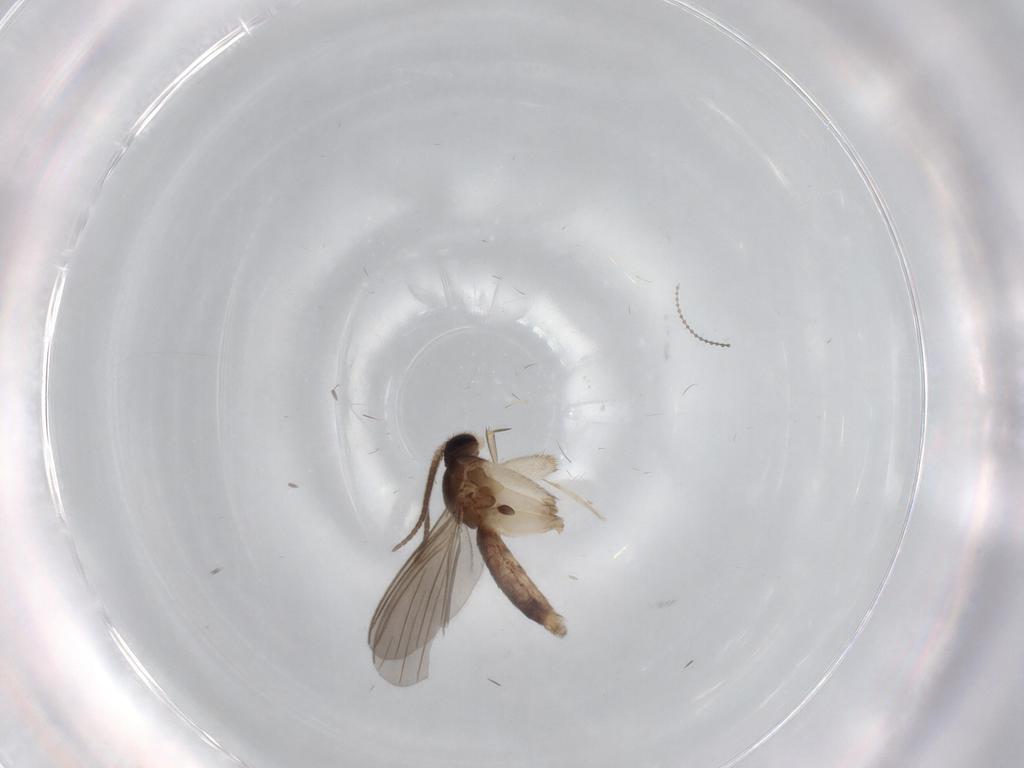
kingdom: Animalia
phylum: Arthropoda
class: Insecta
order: Diptera
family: Mycetophilidae
